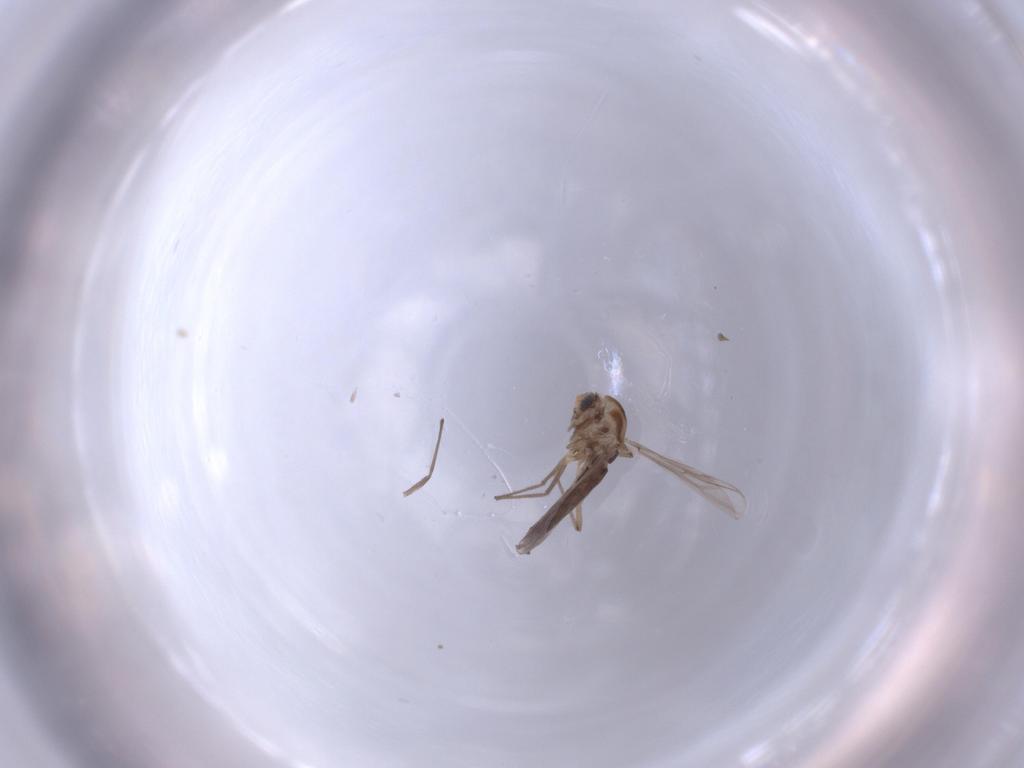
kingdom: Animalia
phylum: Arthropoda
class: Insecta
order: Diptera
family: Chironomidae
